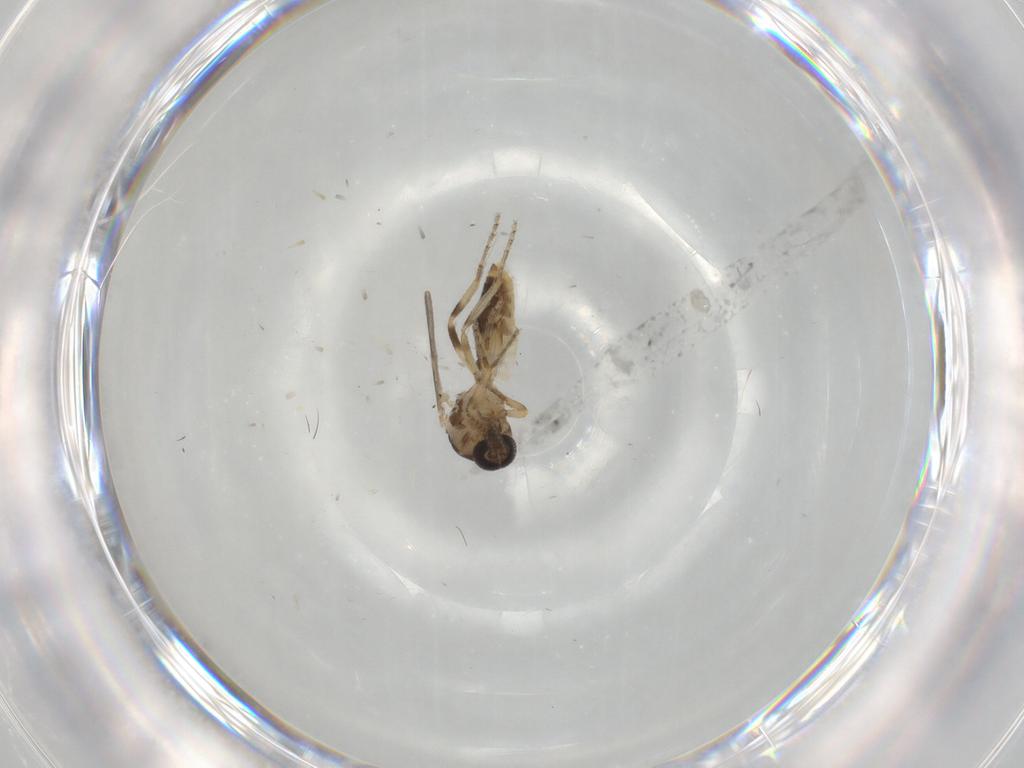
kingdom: Animalia
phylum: Arthropoda
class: Insecta
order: Diptera
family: Ceratopogonidae
